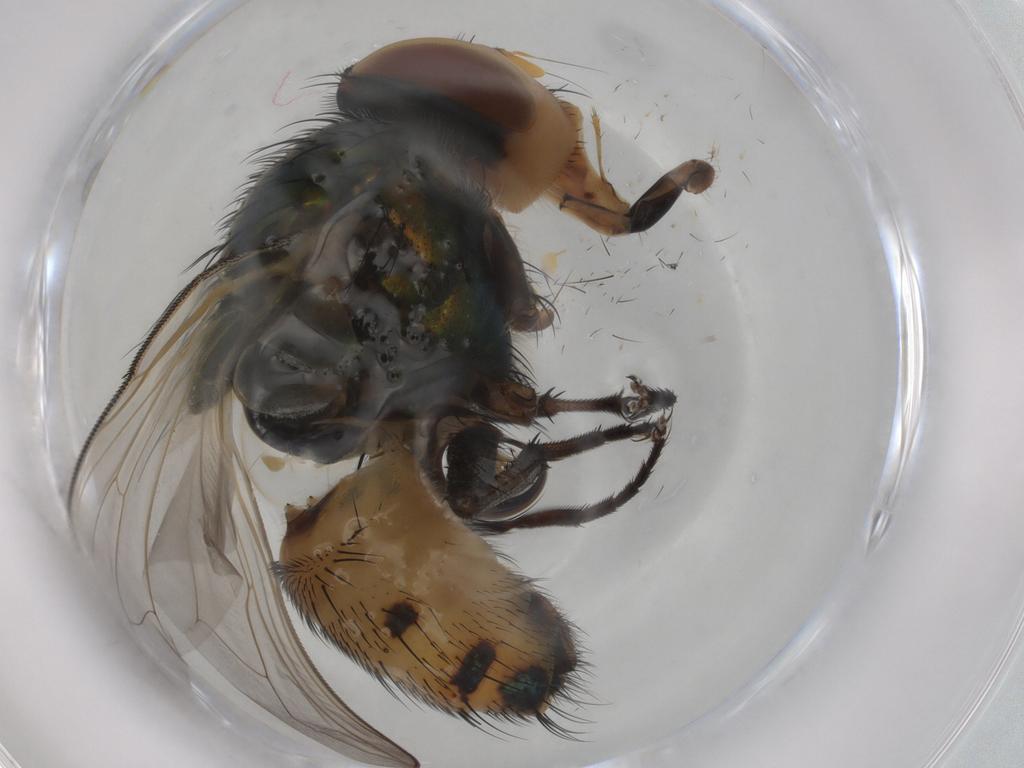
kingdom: Animalia
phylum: Arthropoda
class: Insecta
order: Diptera
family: Calliphoridae
